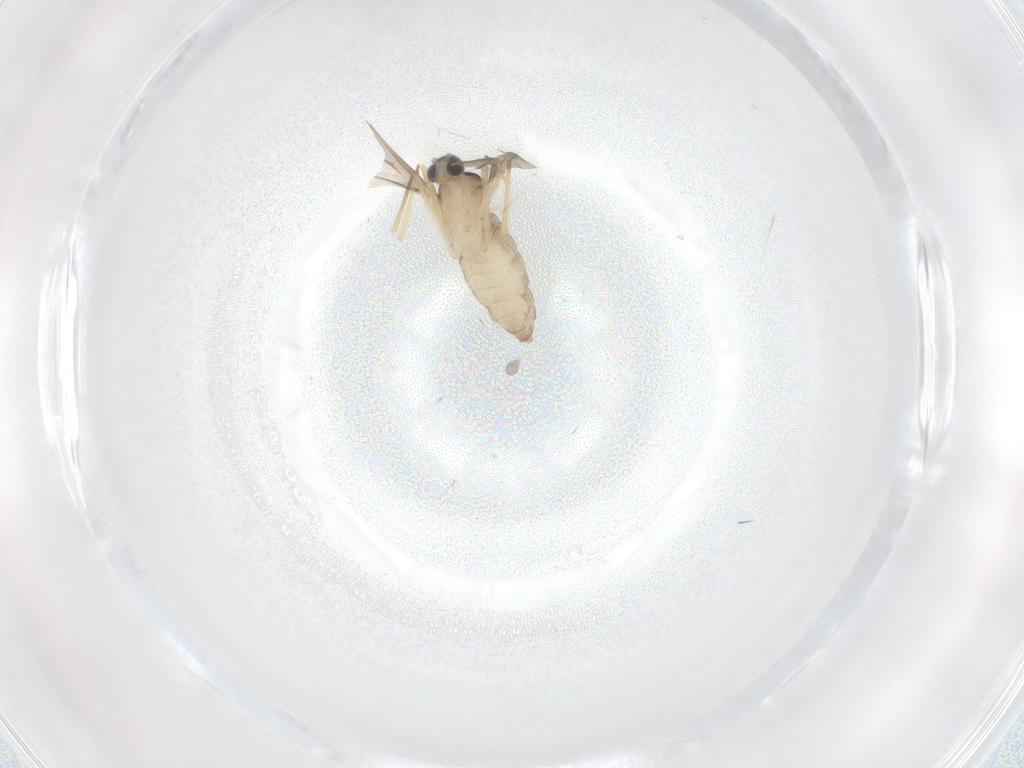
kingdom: Animalia
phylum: Arthropoda
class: Insecta
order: Diptera
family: Cecidomyiidae
